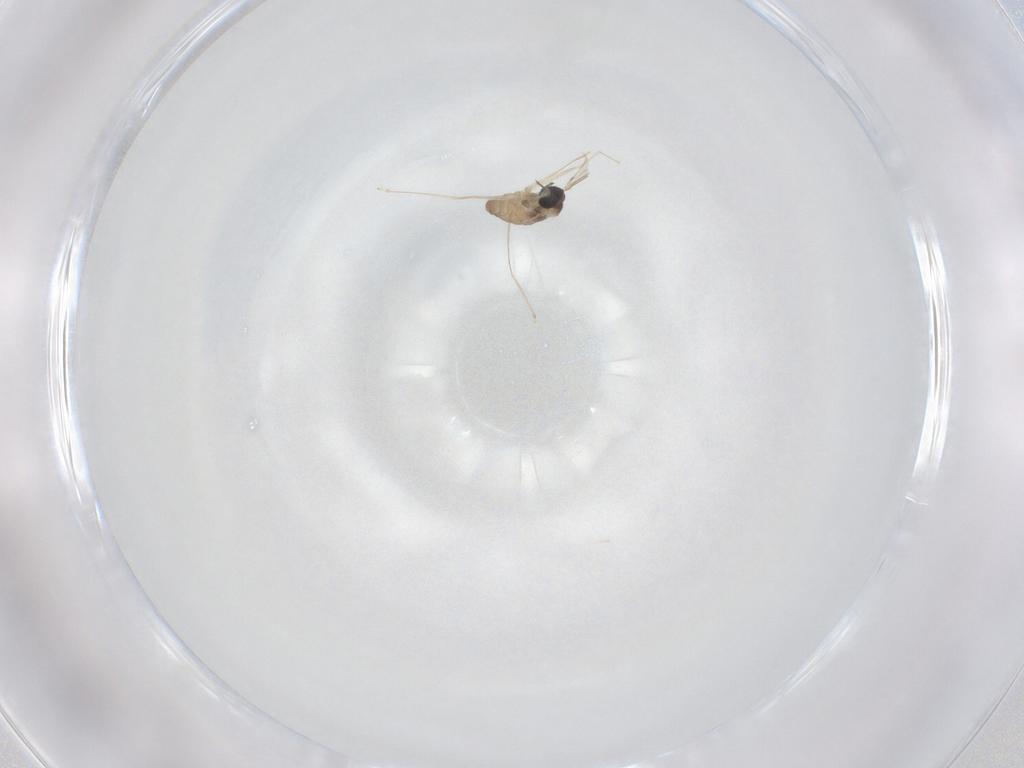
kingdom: Animalia
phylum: Arthropoda
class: Insecta
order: Diptera
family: Cecidomyiidae
